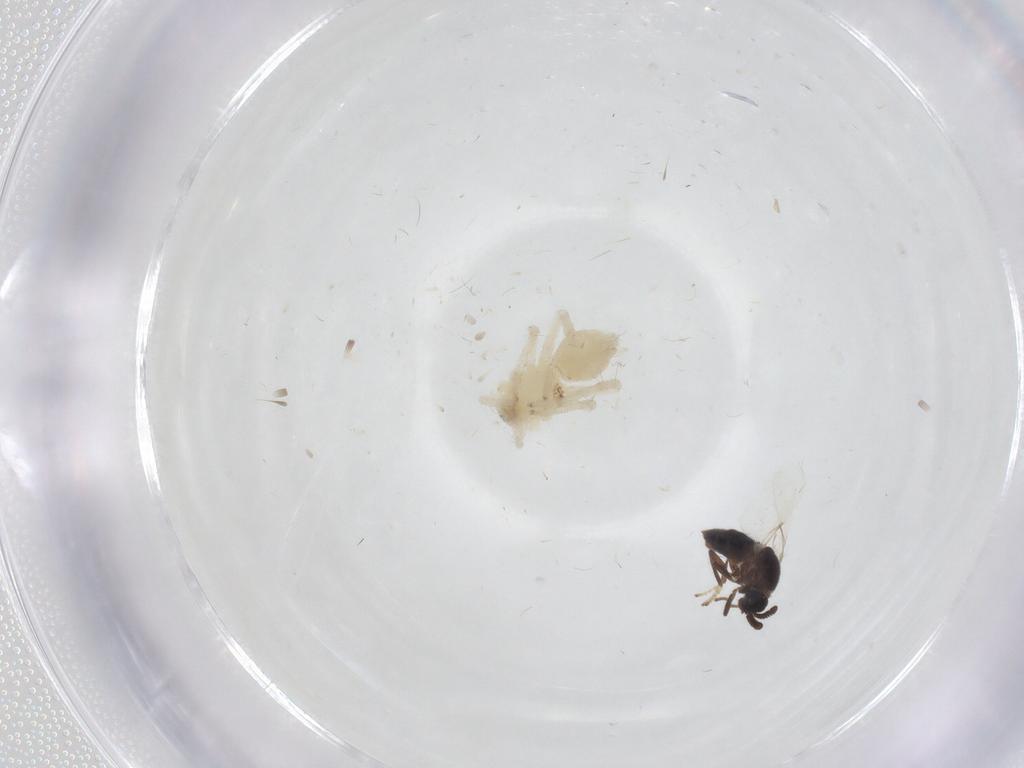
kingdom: Animalia
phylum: Arthropoda
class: Insecta
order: Diptera
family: Scatopsidae
